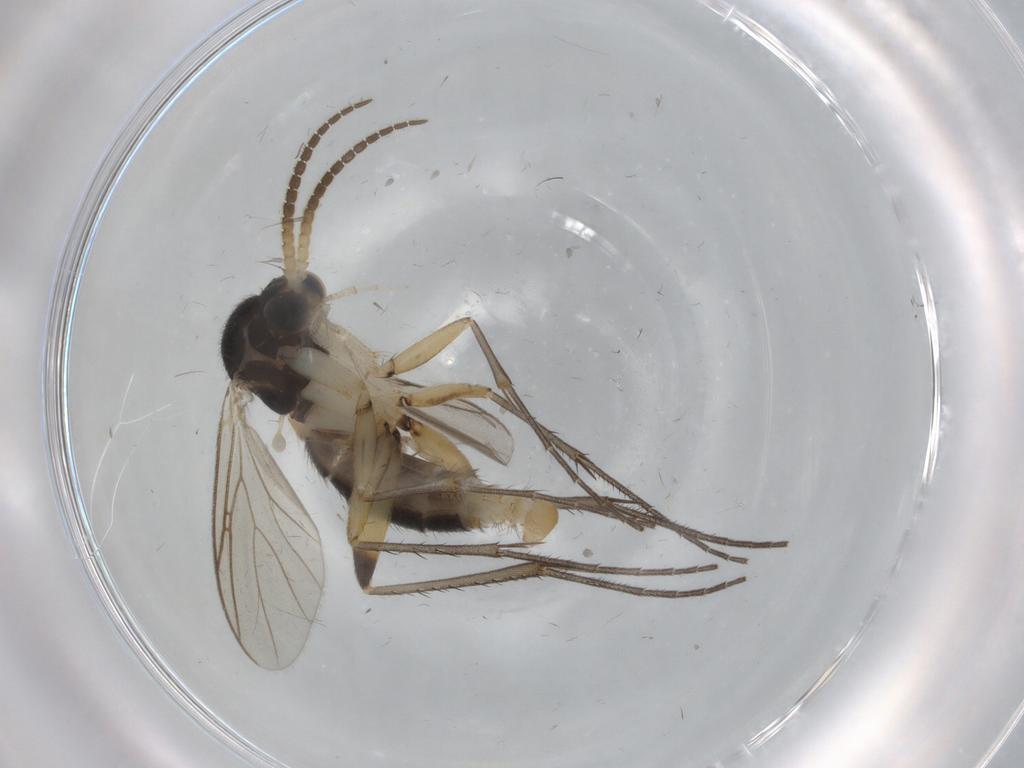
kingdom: Animalia
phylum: Arthropoda
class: Insecta
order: Diptera
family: Mycetophilidae
